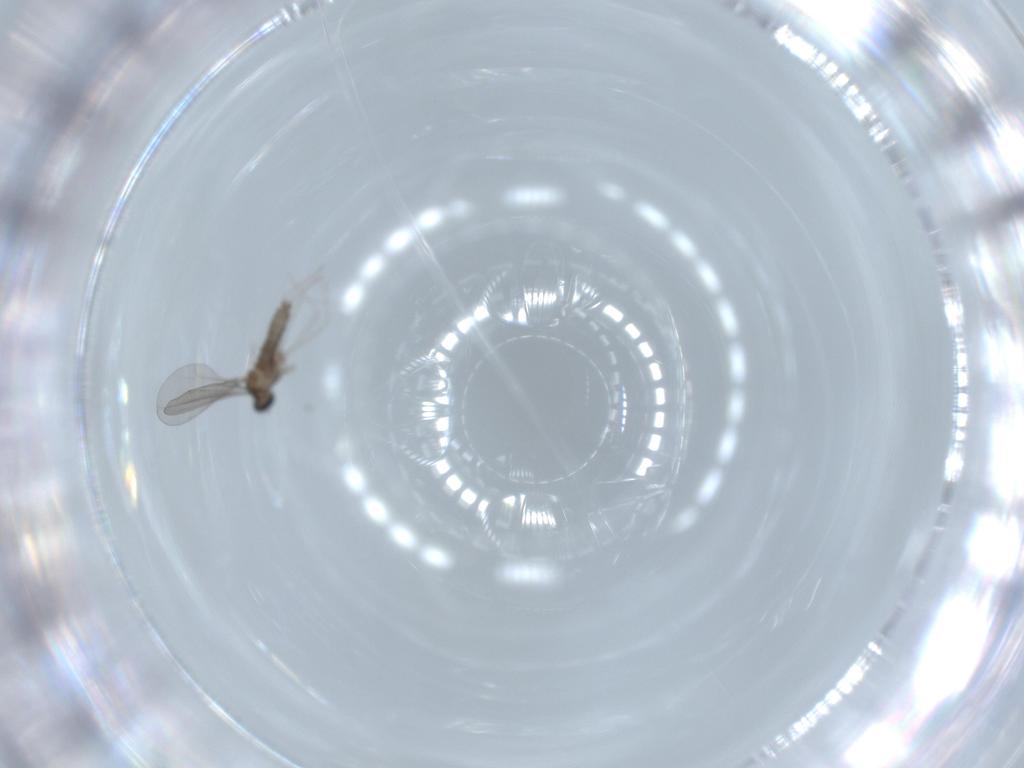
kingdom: Animalia
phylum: Arthropoda
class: Insecta
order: Diptera
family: Cecidomyiidae
